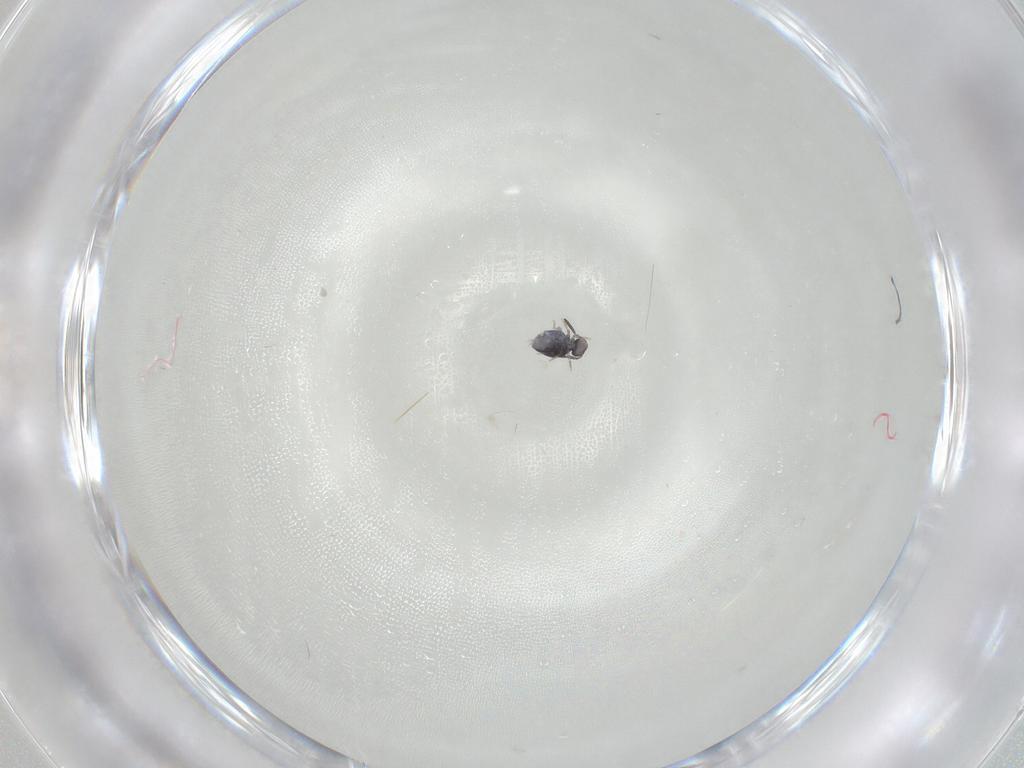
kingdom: Animalia
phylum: Arthropoda
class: Collembola
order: Symphypleona
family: Katiannidae
